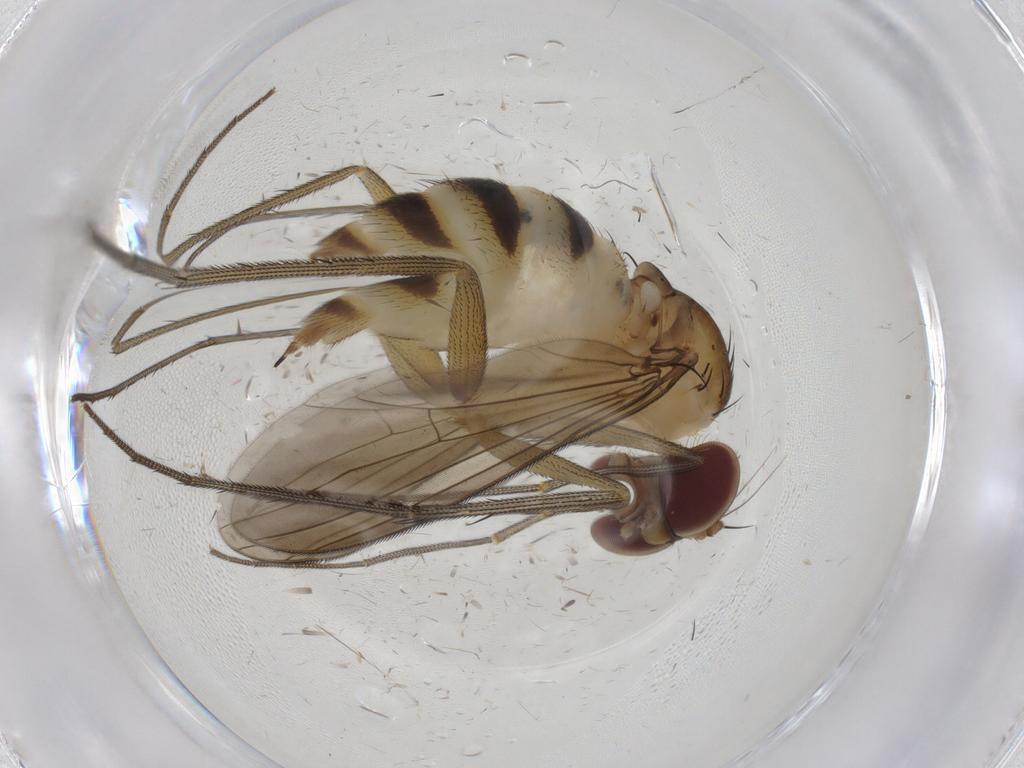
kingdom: Animalia
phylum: Arthropoda
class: Insecta
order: Diptera
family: Dolichopodidae
